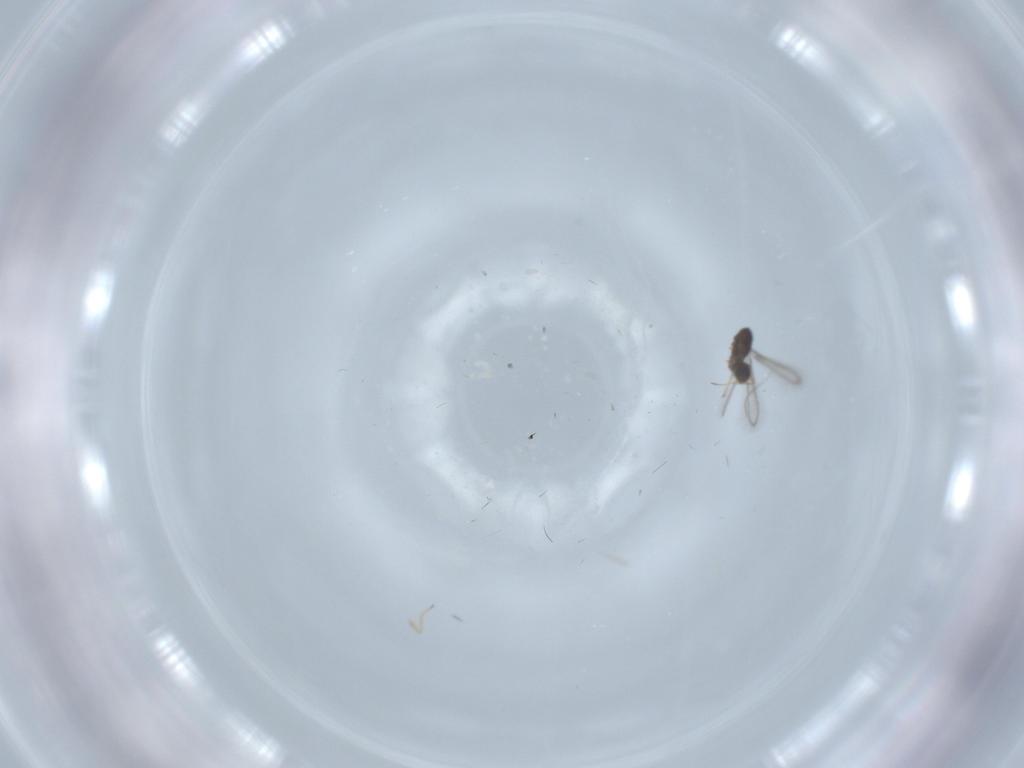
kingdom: Animalia
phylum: Arthropoda
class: Insecta
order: Hymenoptera
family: Mymaridae
